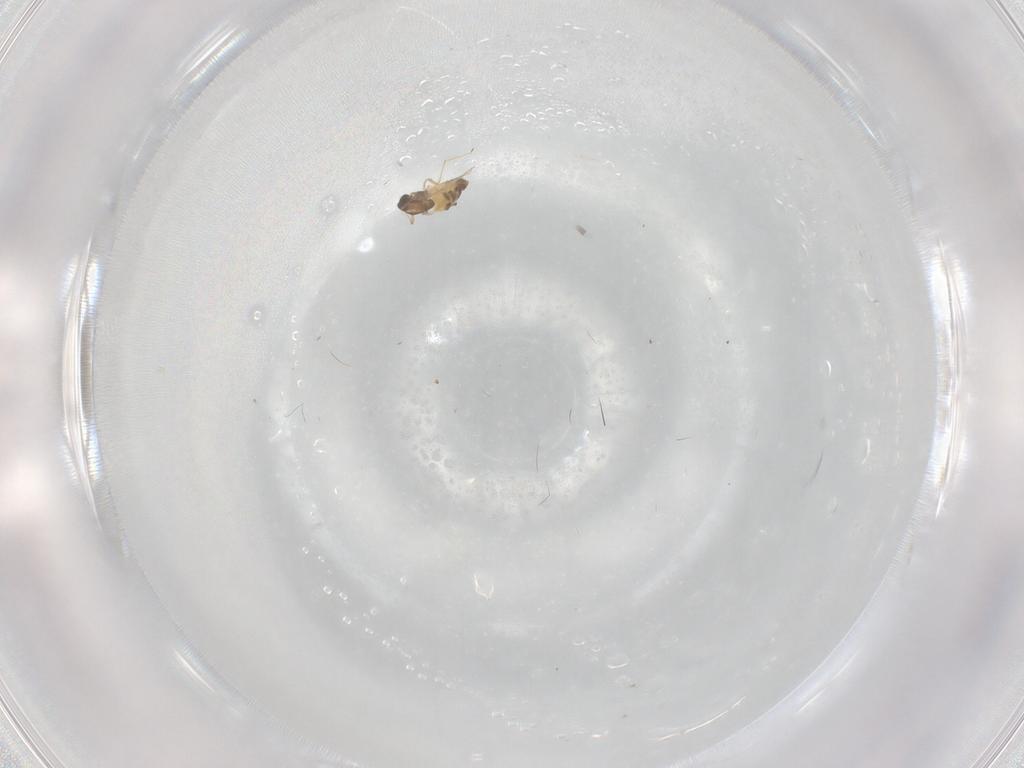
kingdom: Animalia
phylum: Arthropoda
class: Insecta
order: Diptera
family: Chironomidae
